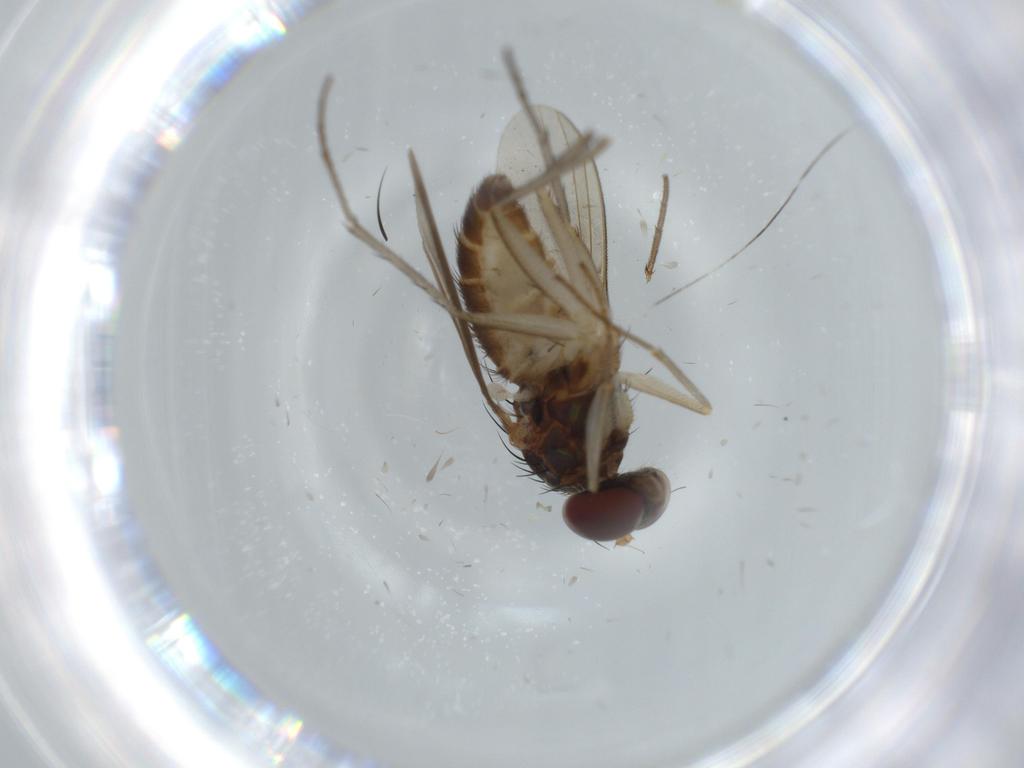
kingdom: Animalia
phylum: Arthropoda
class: Insecta
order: Diptera
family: Dolichopodidae
